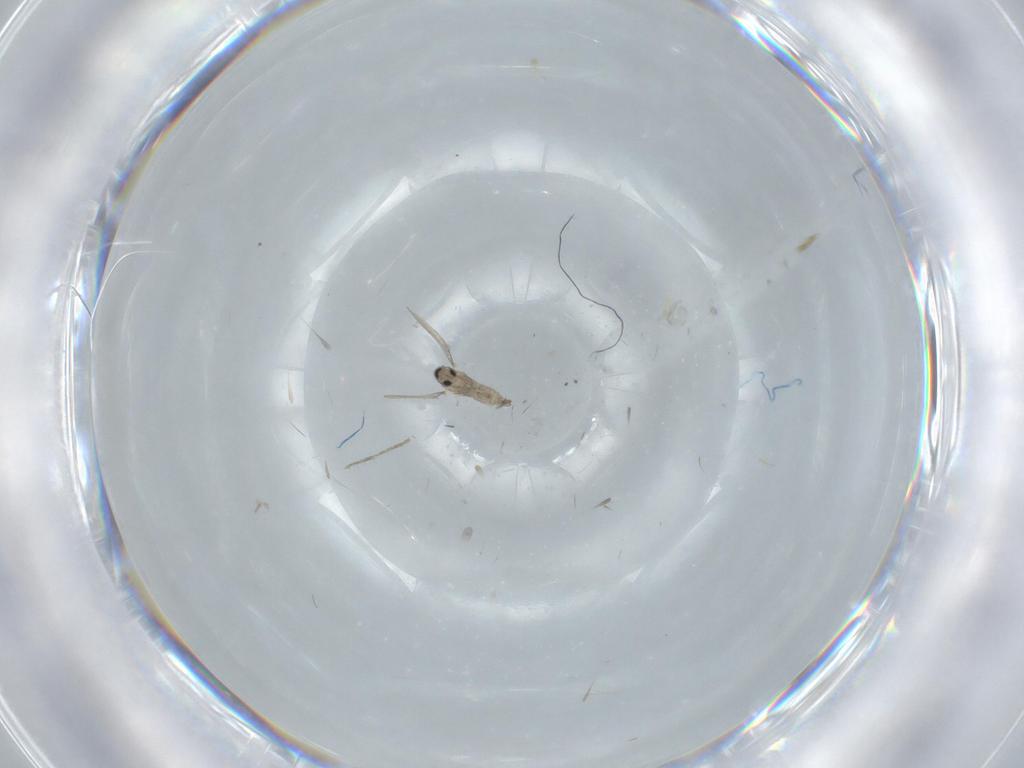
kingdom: Animalia
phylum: Arthropoda
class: Insecta
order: Diptera
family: Cecidomyiidae
